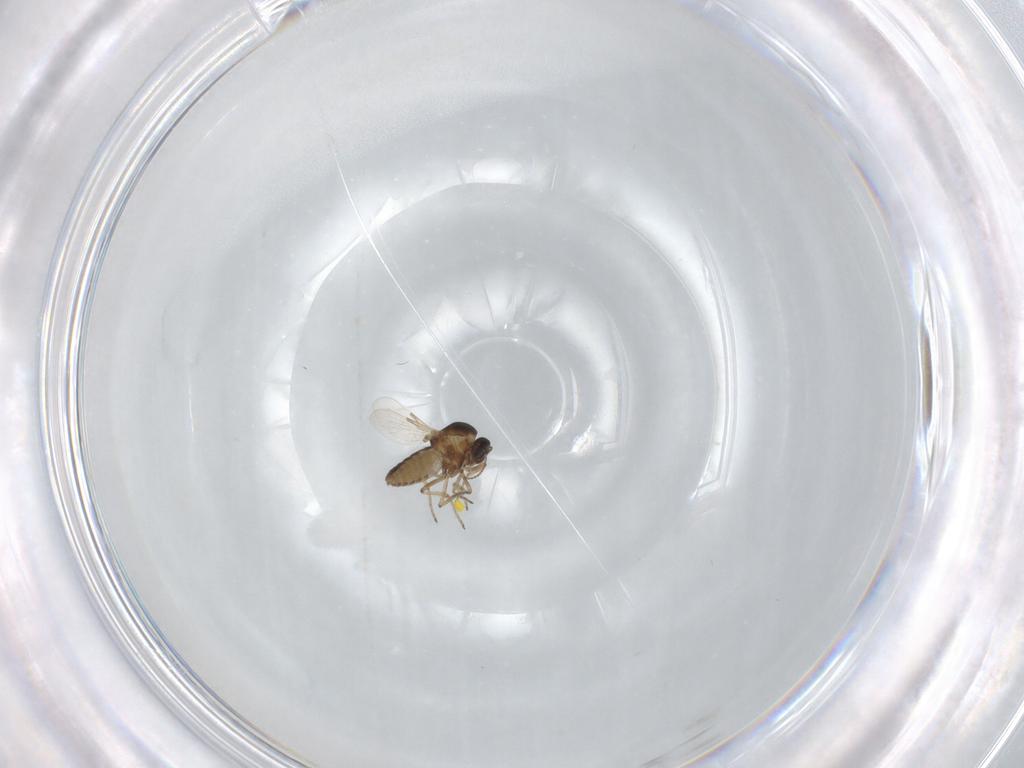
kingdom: Animalia
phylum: Arthropoda
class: Insecta
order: Diptera
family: Ceratopogonidae
